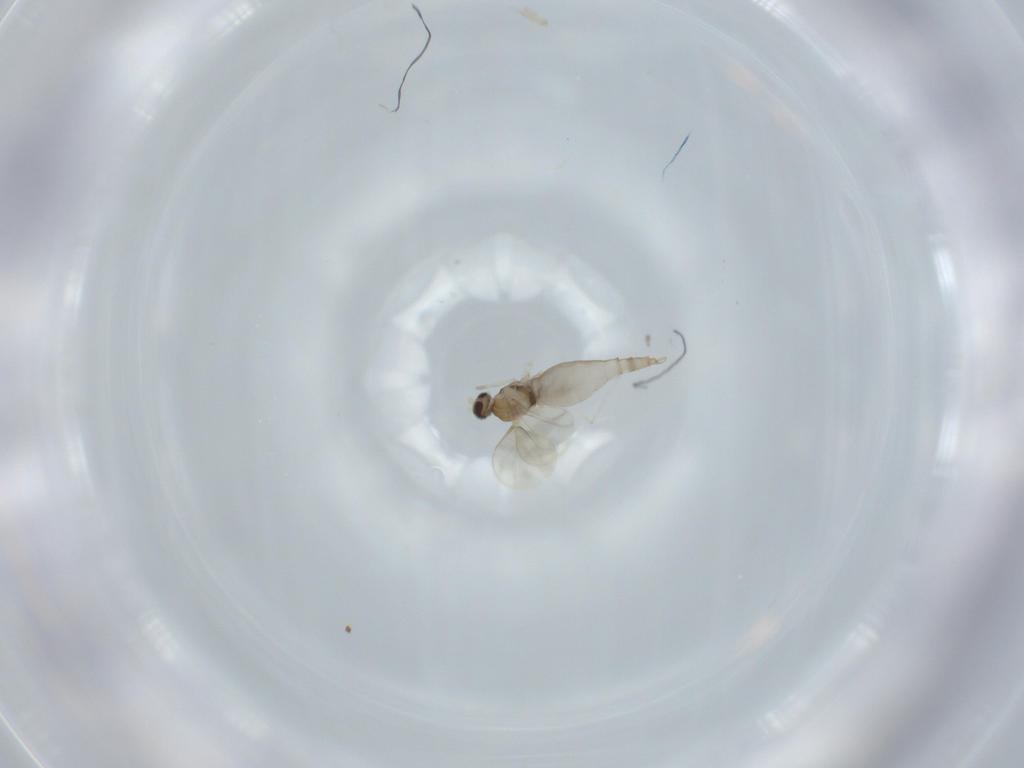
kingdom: Animalia
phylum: Arthropoda
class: Insecta
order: Diptera
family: Cecidomyiidae
